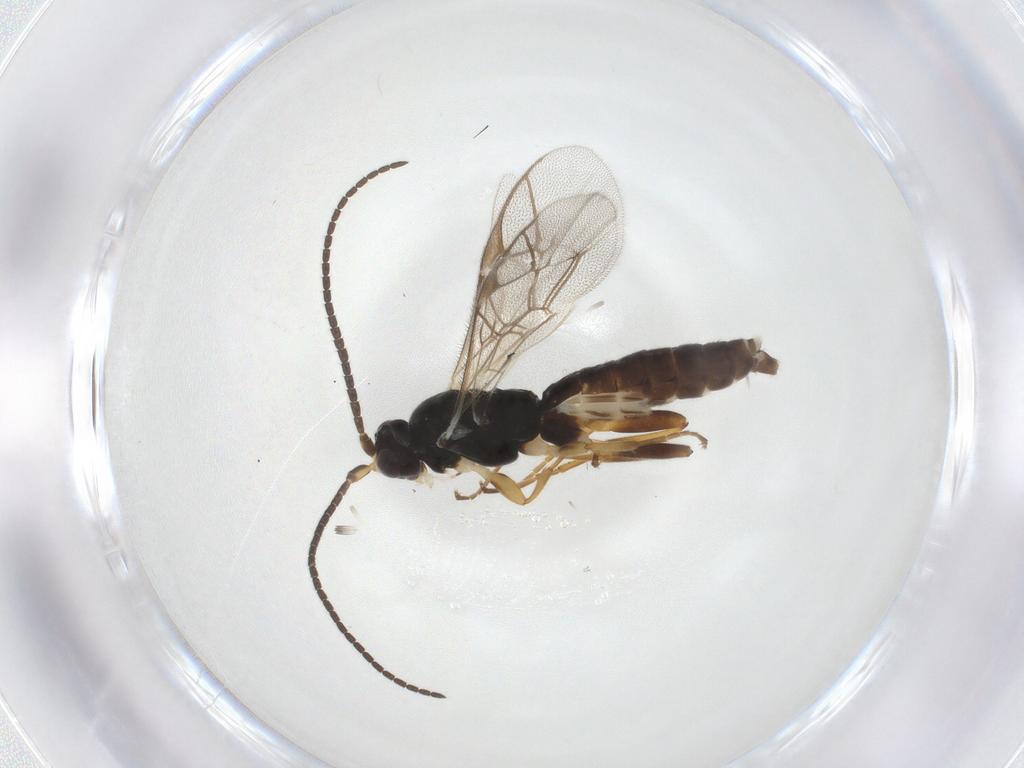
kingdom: Animalia
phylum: Arthropoda
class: Insecta
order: Hymenoptera
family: Ichneumonidae
